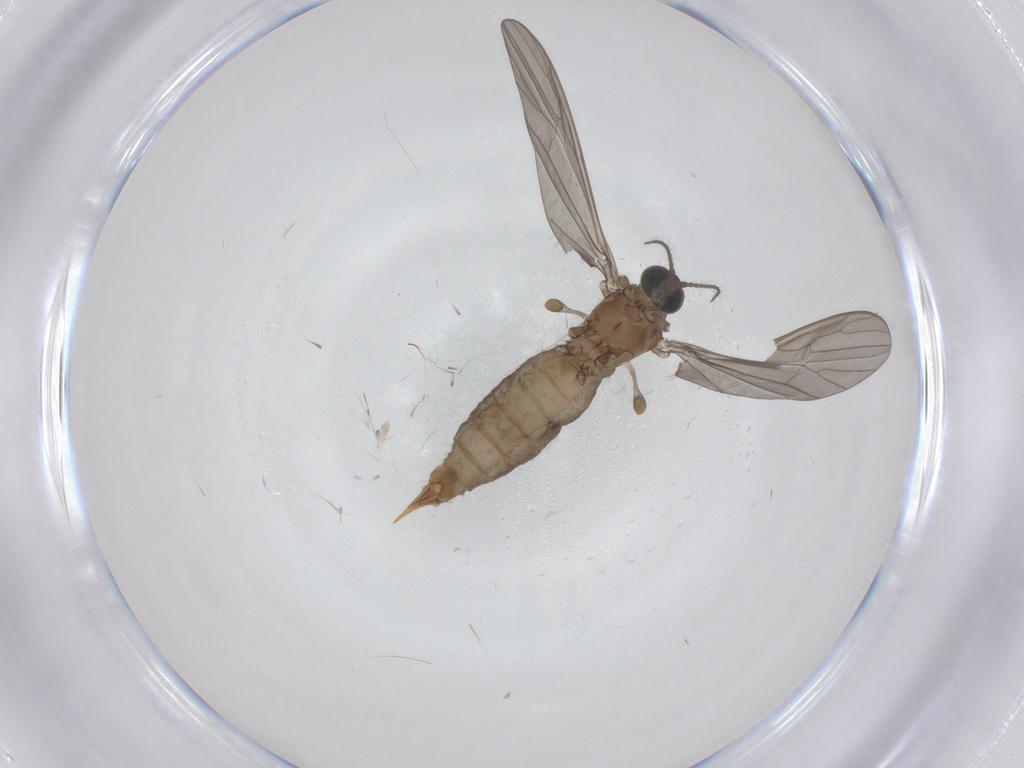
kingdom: Animalia
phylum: Arthropoda
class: Insecta
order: Diptera
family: Limoniidae
